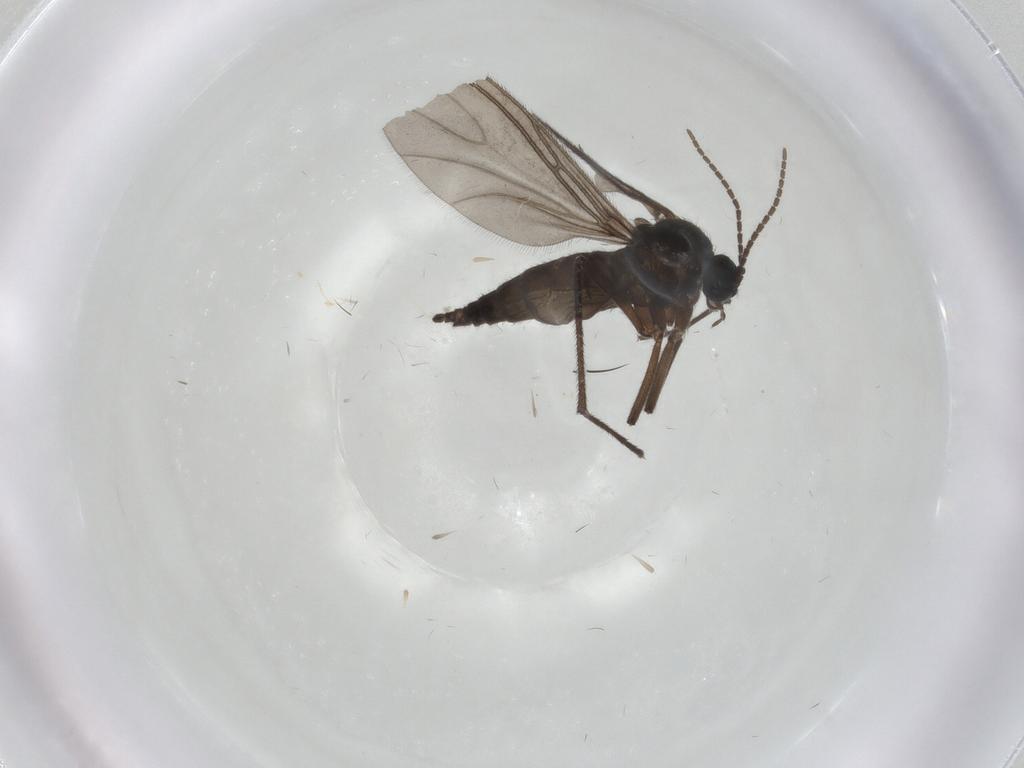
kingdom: Animalia
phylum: Arthropoda
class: Insecta
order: Diptera
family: Sciaridae
